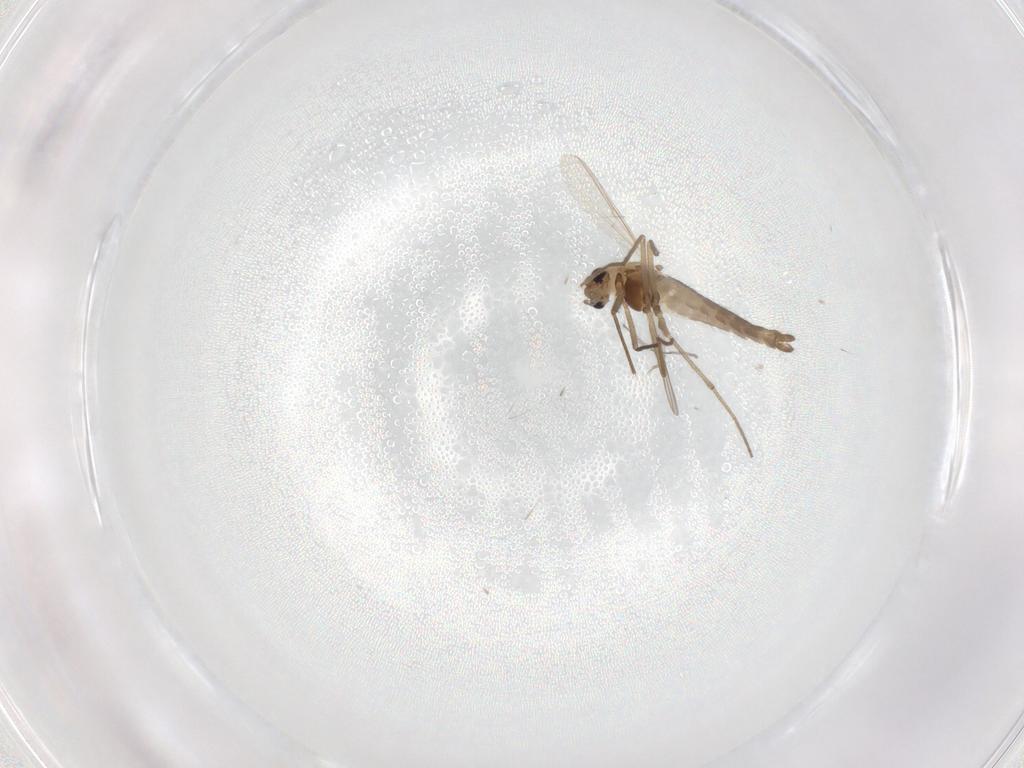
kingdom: Animalia
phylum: Arthropoda
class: Insecta
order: Diptera
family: Chironomidae
